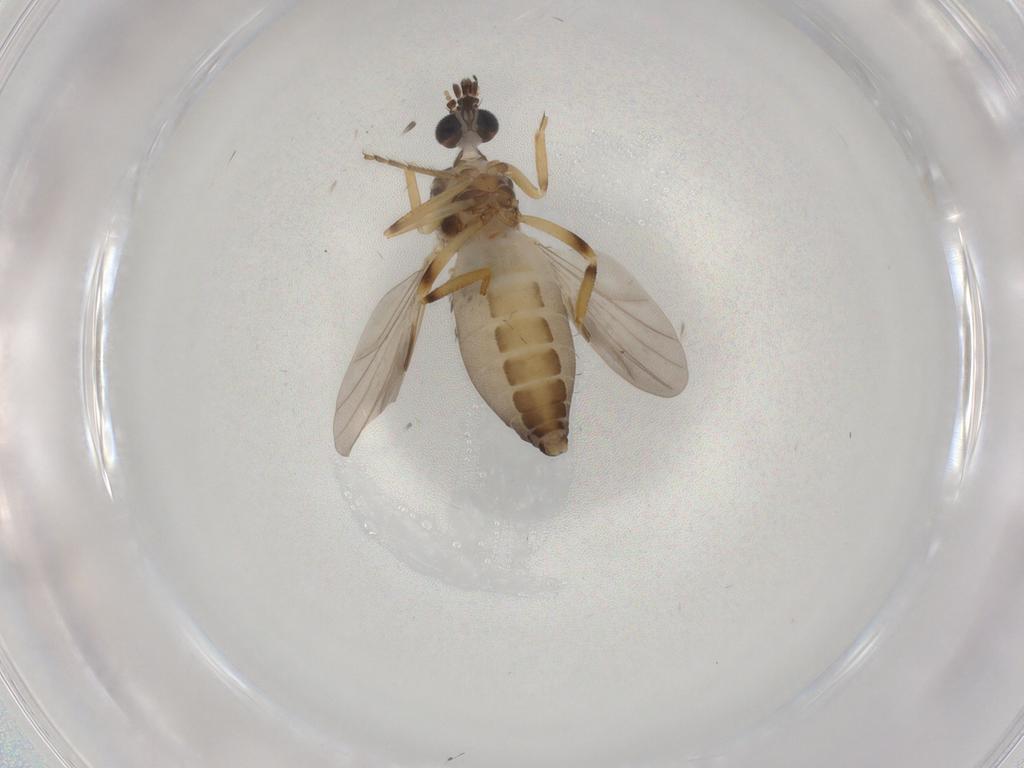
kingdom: Animalia
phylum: Arthropoda
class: Insecta
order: Diptera
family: Ceratopogonidae
